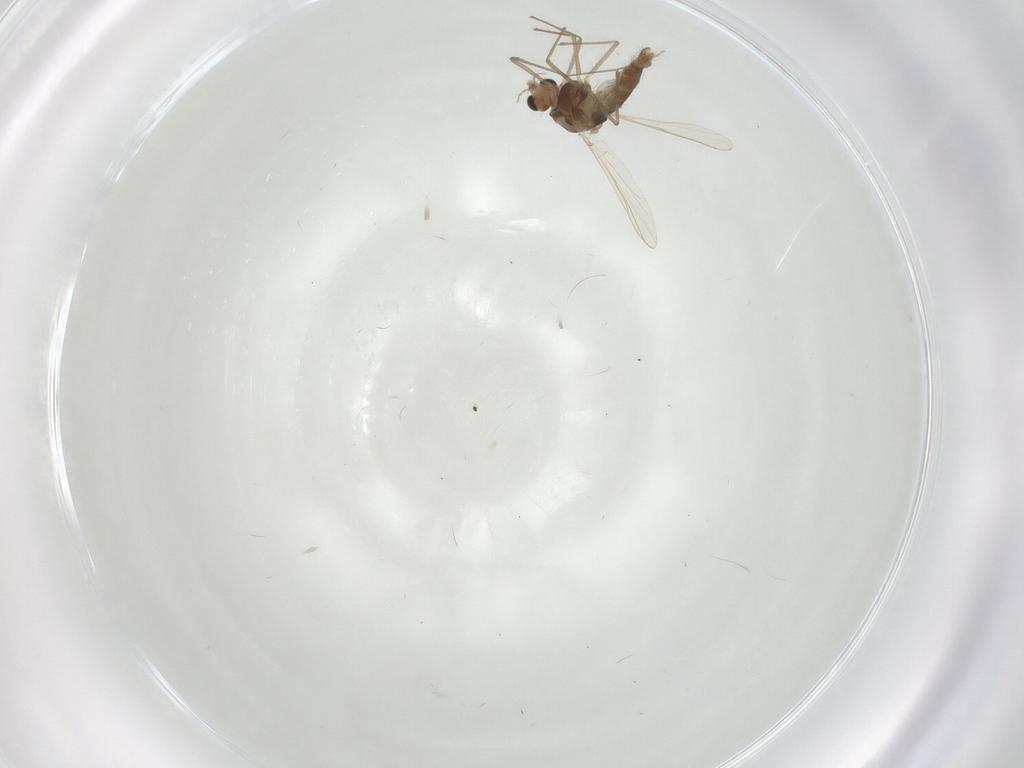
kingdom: Animalia
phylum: Arthropoda
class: Insecta
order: Diptera
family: Chironomidae
